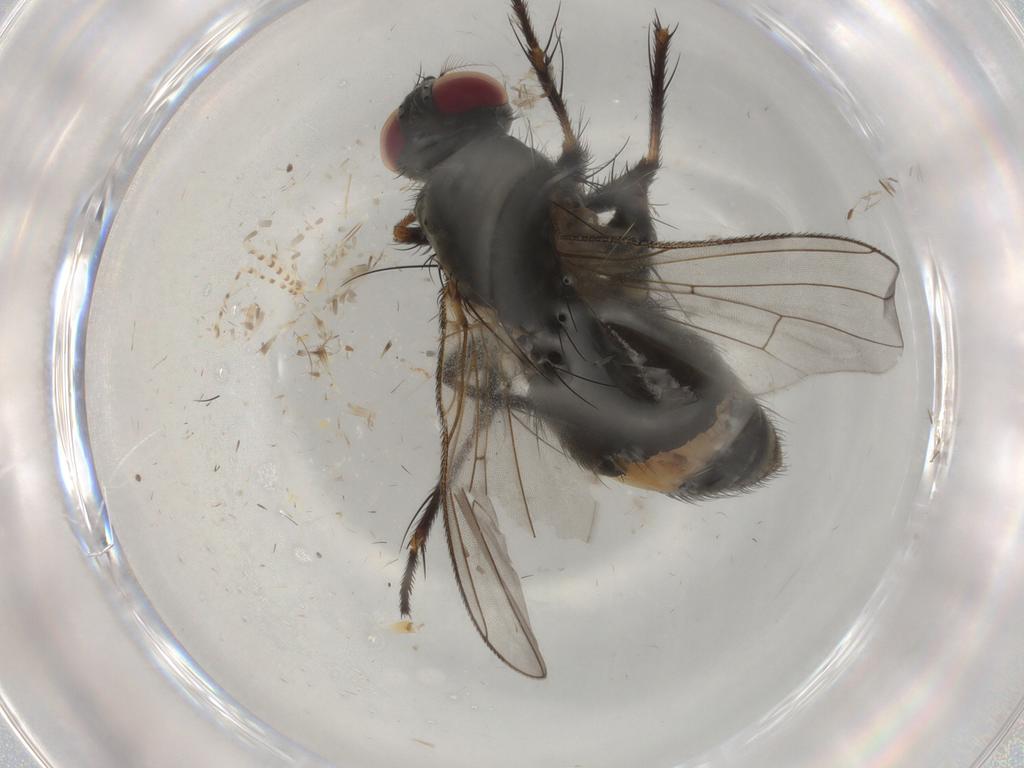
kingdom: Animalia
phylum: Arthropoda
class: Insecta
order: Diptera
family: Muscidae
